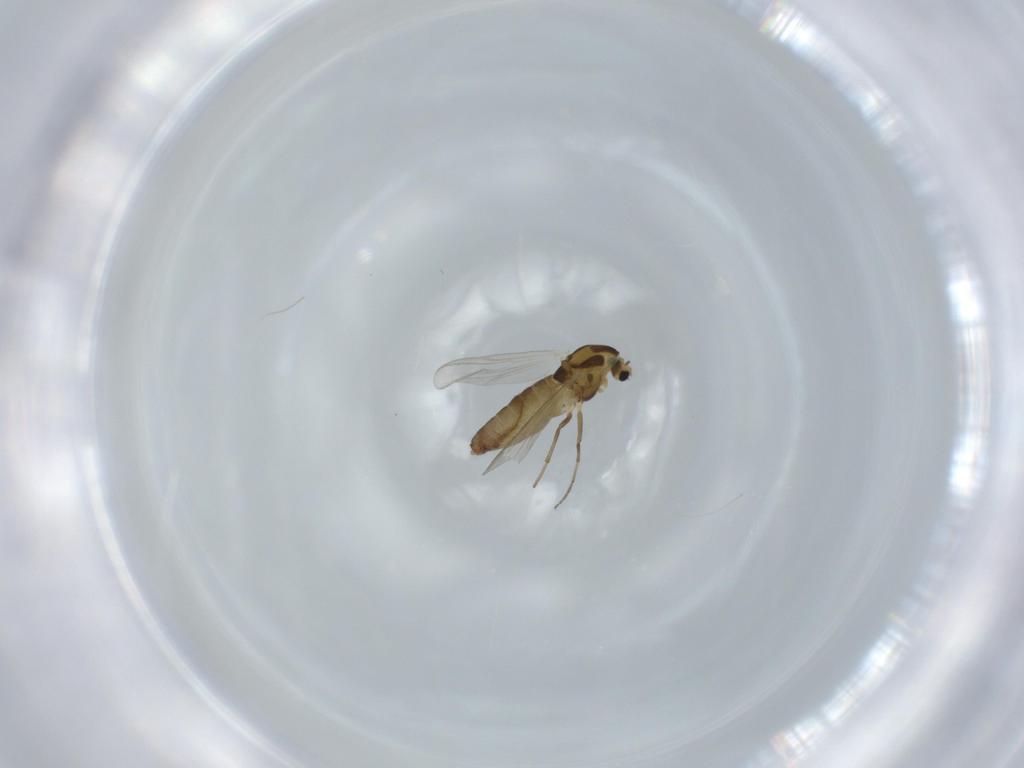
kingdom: Animalia
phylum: Arthropoda
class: Insecta
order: Diptera
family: Chironomidae
